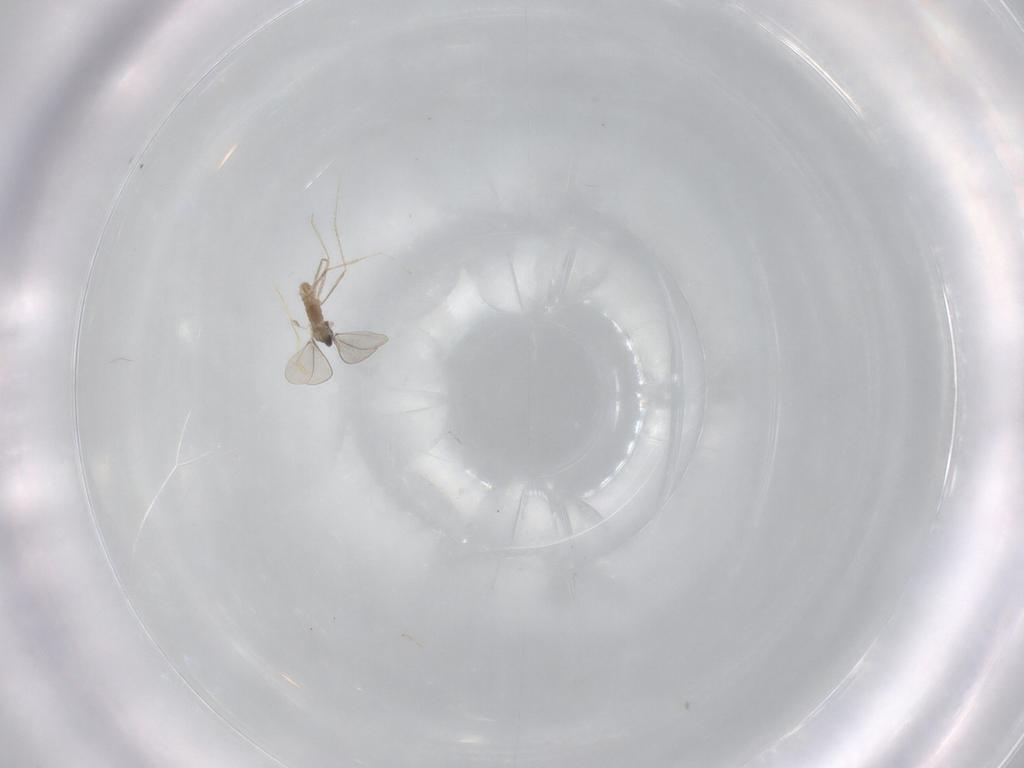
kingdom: Animalia
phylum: Arthropoda
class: Insecta
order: Diptera
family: Cecidomyiidae
